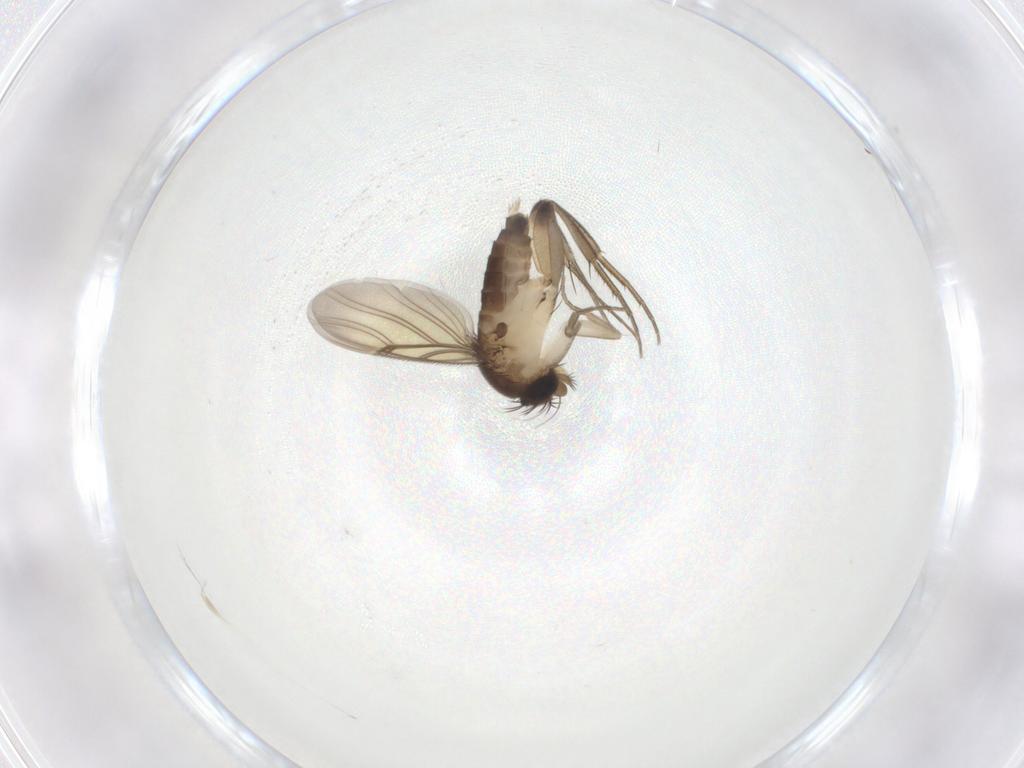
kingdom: Animalia
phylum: Arthropoda
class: Insecta
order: Diptera
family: Phoridae
